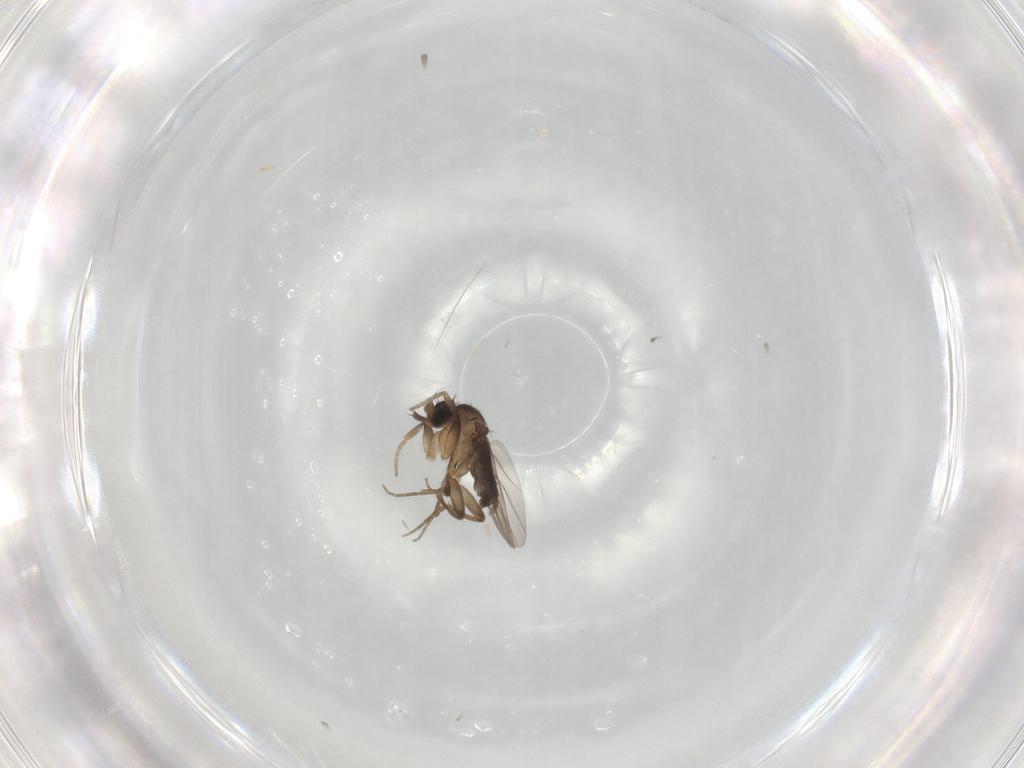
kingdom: Animalia
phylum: Arthropoda
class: Insecta
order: Diptera
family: Phoridae
